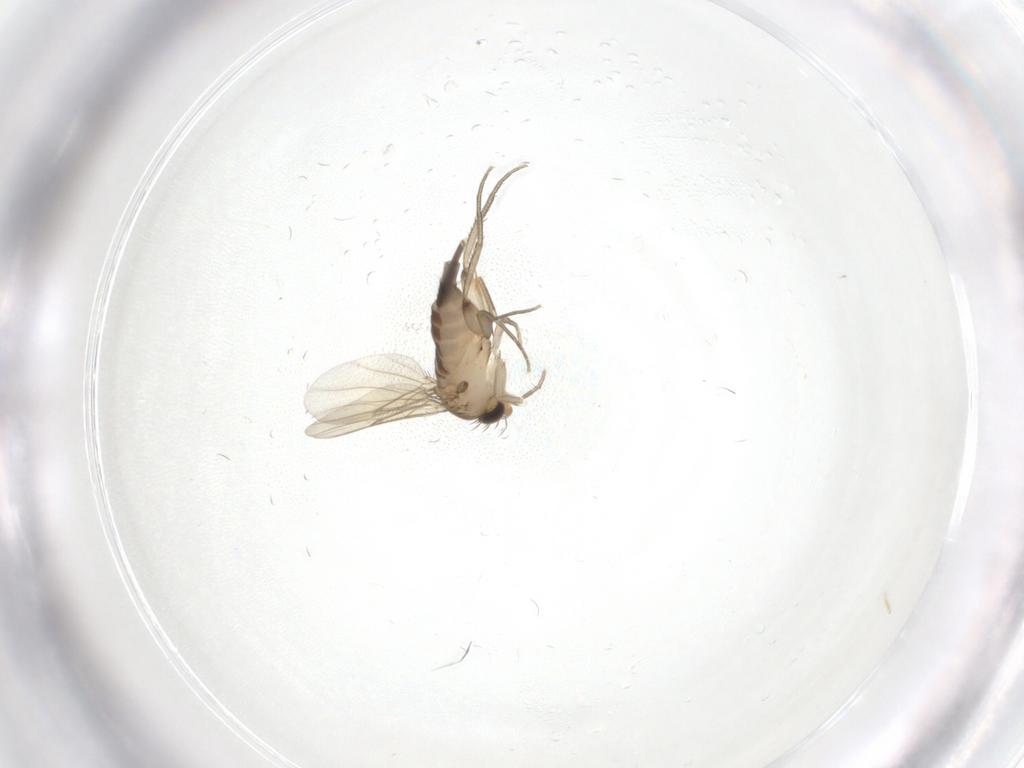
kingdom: Animalia
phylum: Arthropoda
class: Insecta
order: Diptera
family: Phoridae
